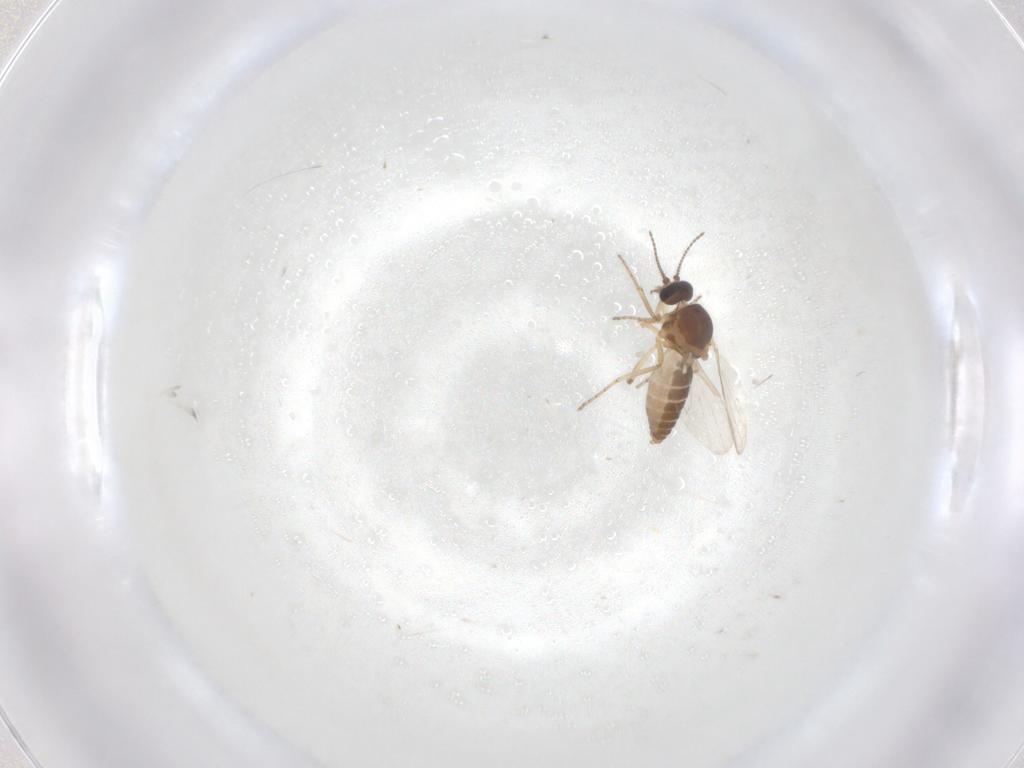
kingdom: Animalia
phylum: Arthropoda
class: Insecta
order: Diptera
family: Ceratopogonidae
